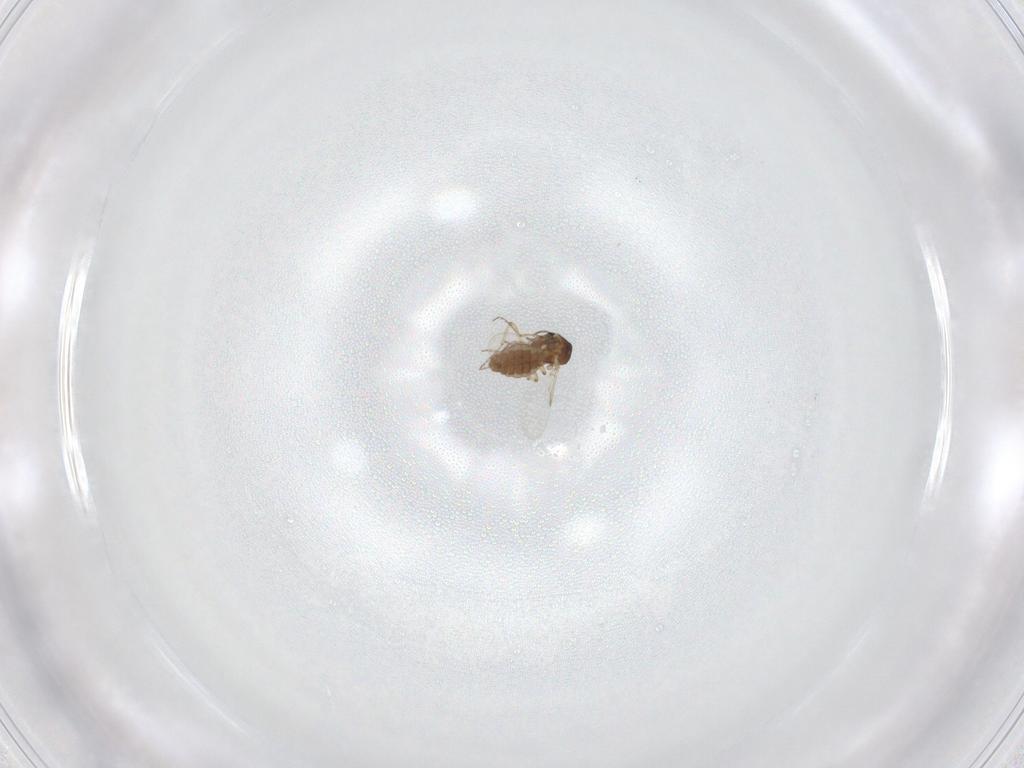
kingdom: Animalia
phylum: Arthropoda
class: Insecta
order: Diptera
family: Ceratopogonidae
